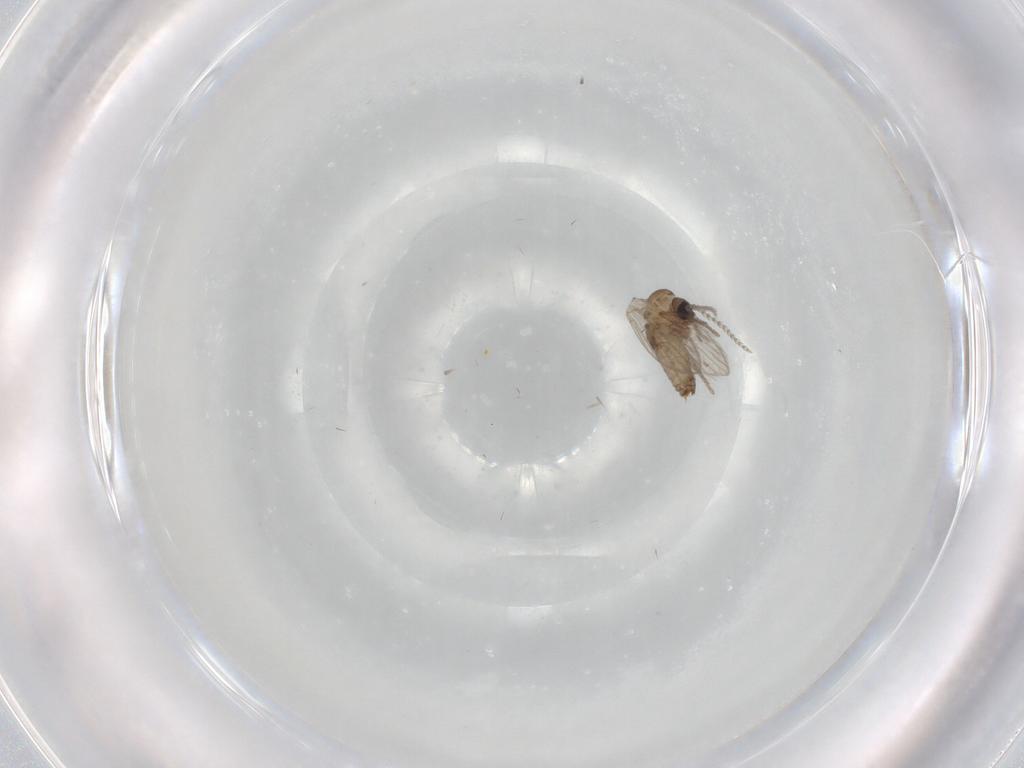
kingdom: Animalia
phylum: Arthropoda
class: Insecta
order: Diptera
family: Psychodidae
